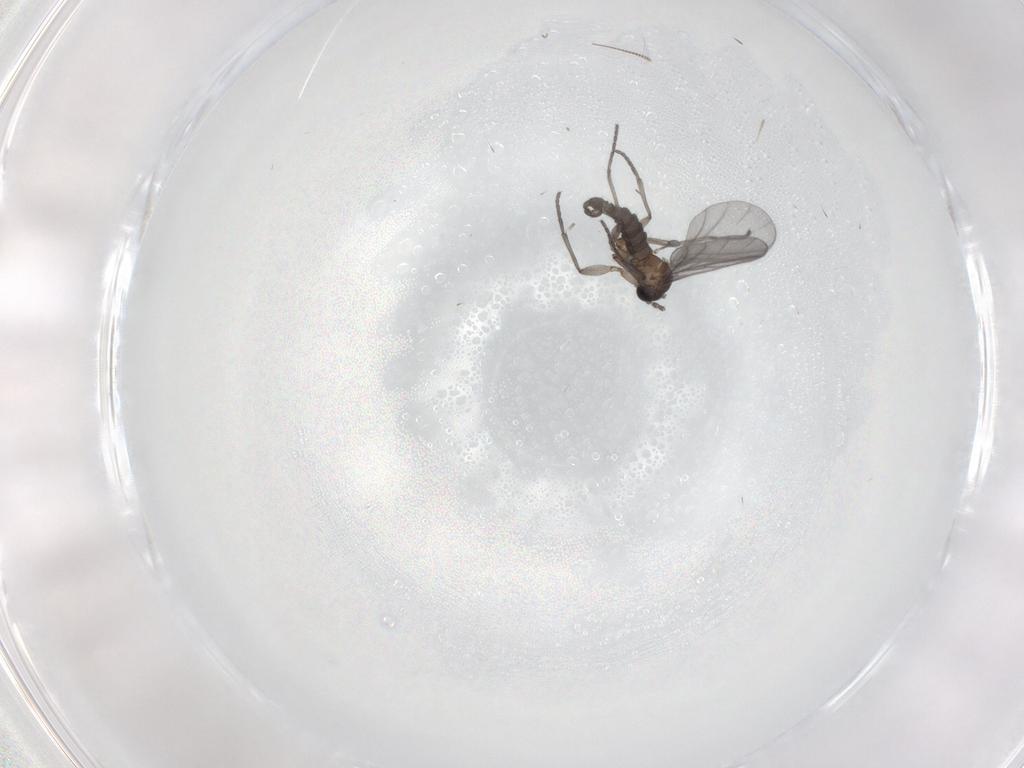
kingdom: Animalia
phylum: Arthropoda
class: Insecta
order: Diptera
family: Chironomidae
